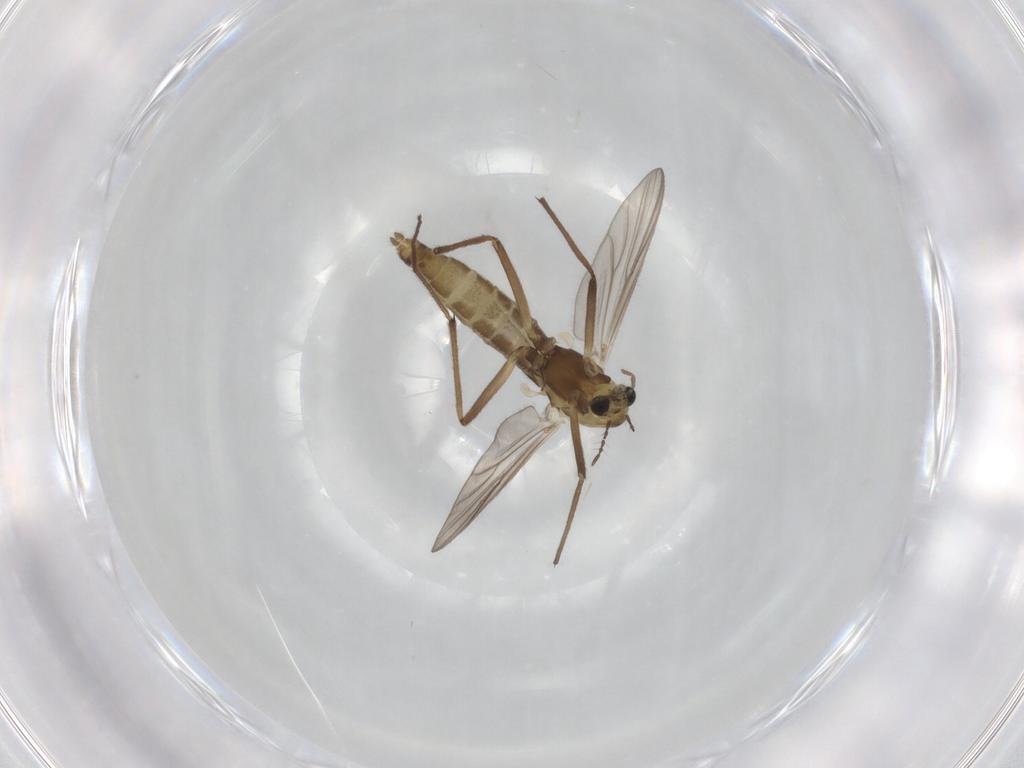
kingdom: Animalia
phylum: Arthropoda
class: Insecta
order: Diptera
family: Chironomidae
